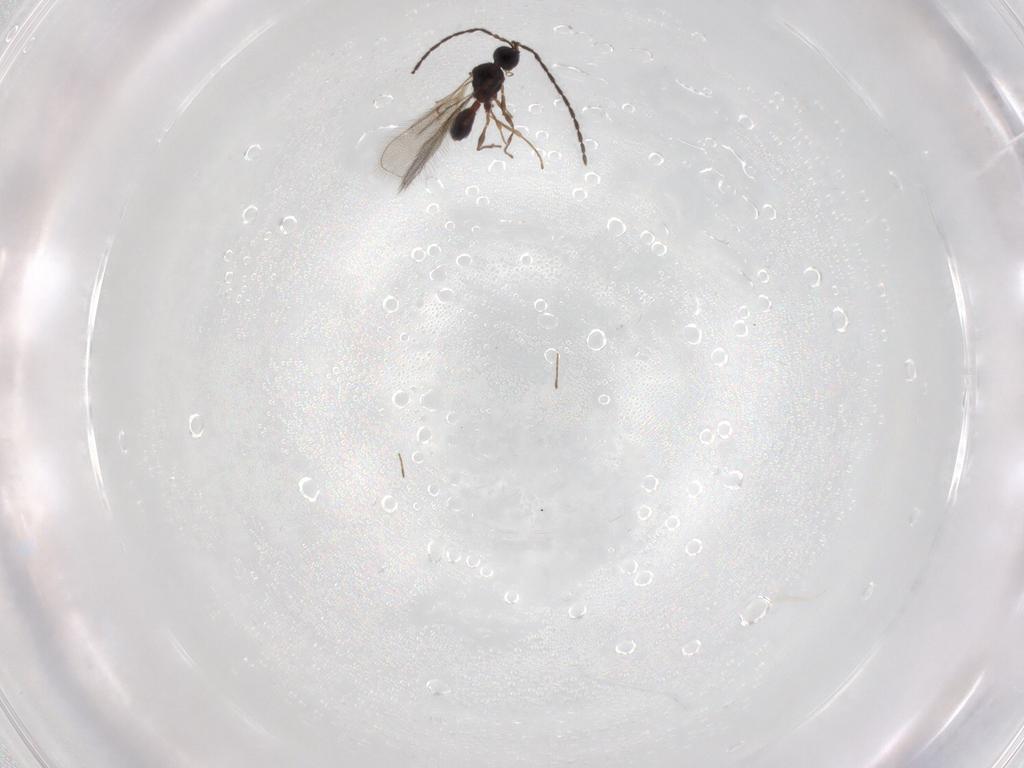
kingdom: Animalia
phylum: Arthropoda
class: Insecta
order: Hymenoptera
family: Diapriidae
